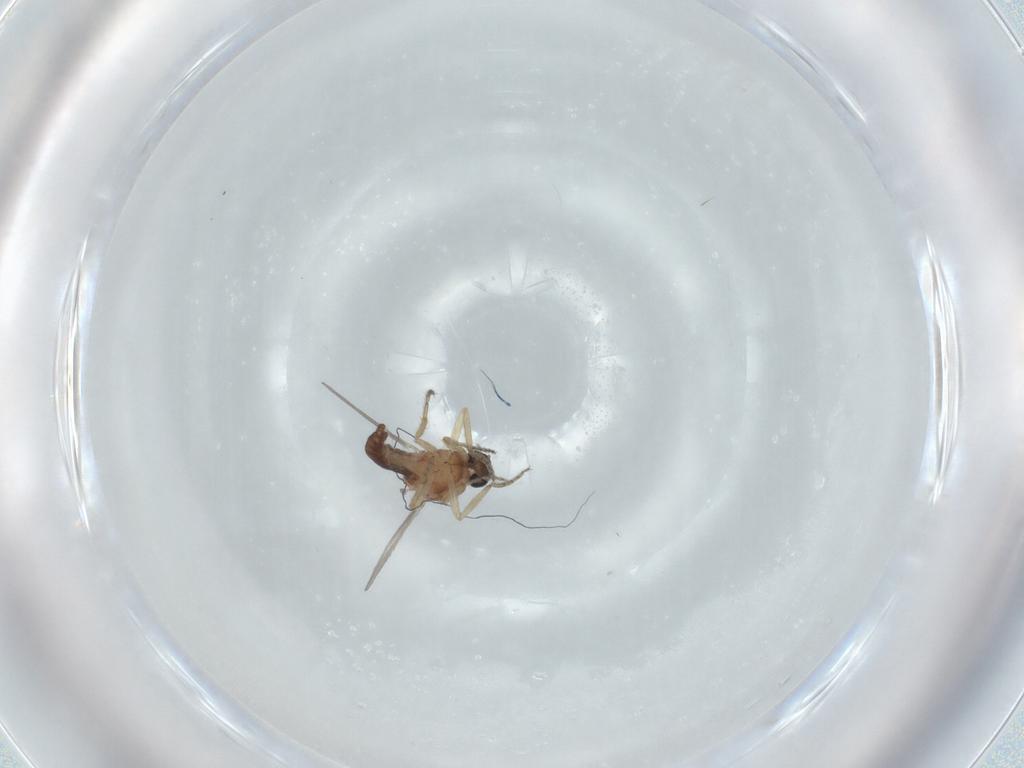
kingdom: Animalia
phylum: Arthropoda
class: Insecta
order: Diptera
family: Ceratopogonidae
